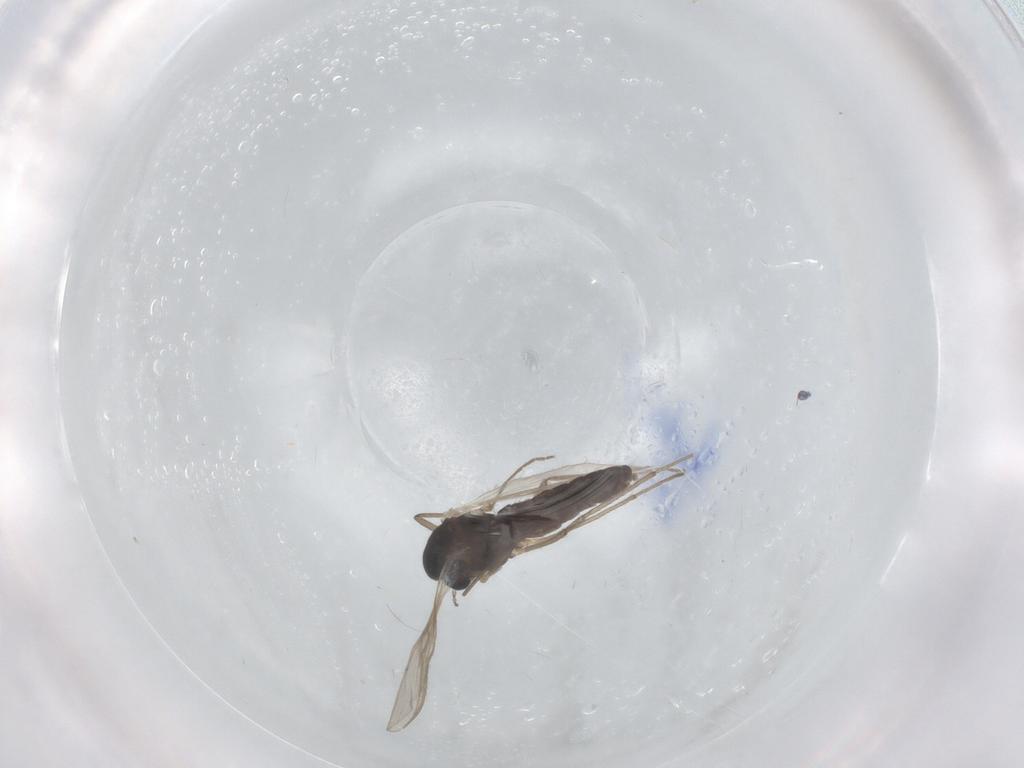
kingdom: Animalia
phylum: Arthropoda
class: Insecta
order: Diptera
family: Chironomidae
